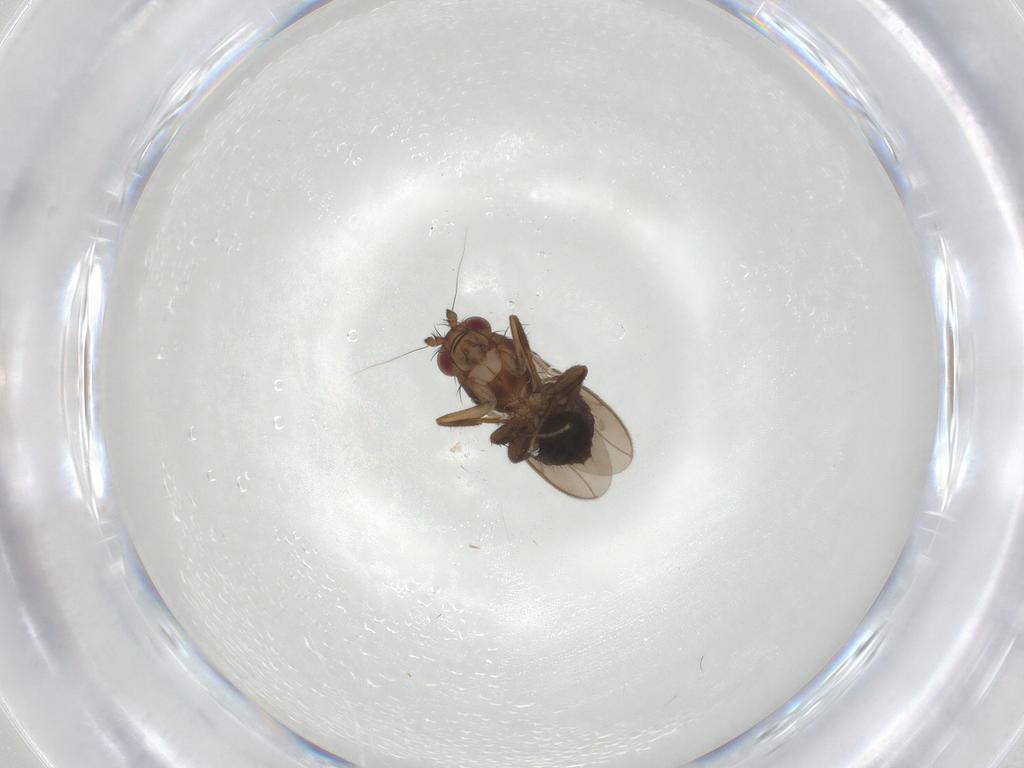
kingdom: Animalia
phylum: Arthropoda
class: Insecta
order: Diptera
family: Sphaeroceridae
